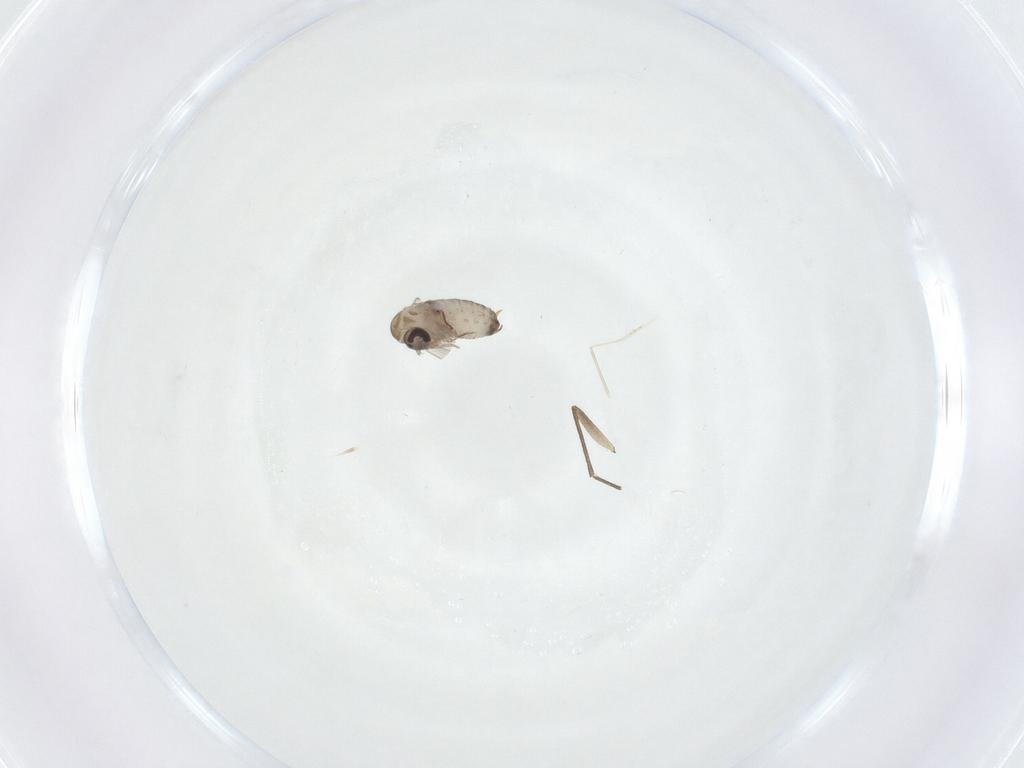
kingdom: Animalia
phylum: Arthropoda
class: Insecta
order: Diptera
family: Psychodidae
